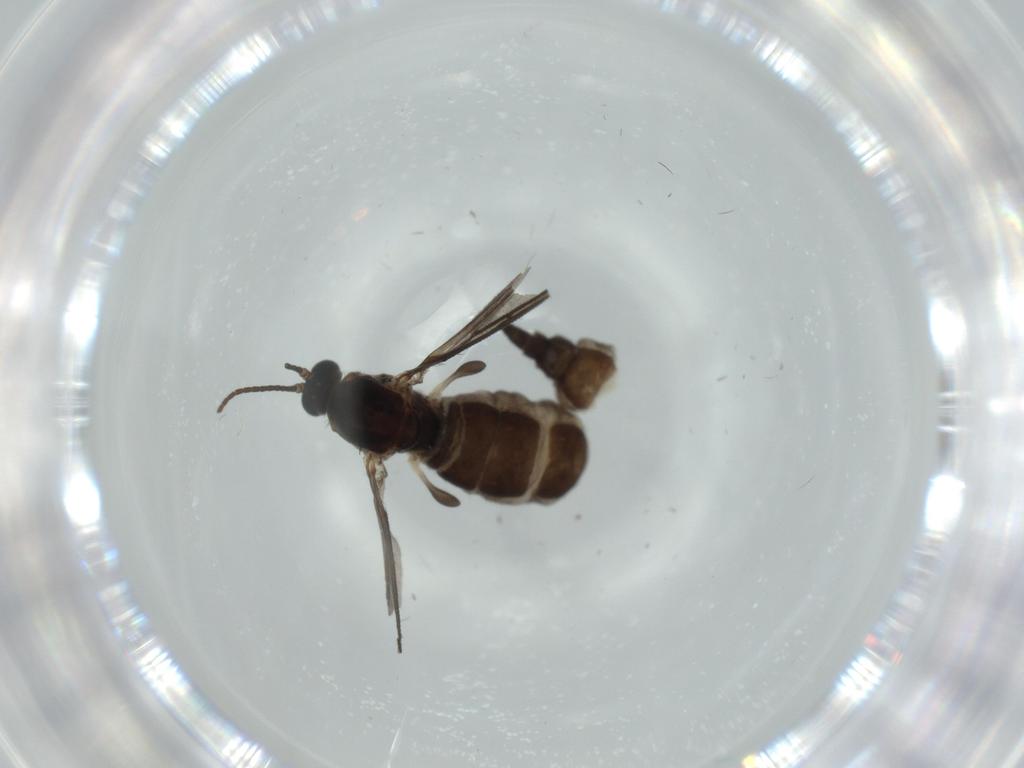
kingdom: Animalia
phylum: Arthropoda
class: Insecta
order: Diptera
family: Sciaridae
